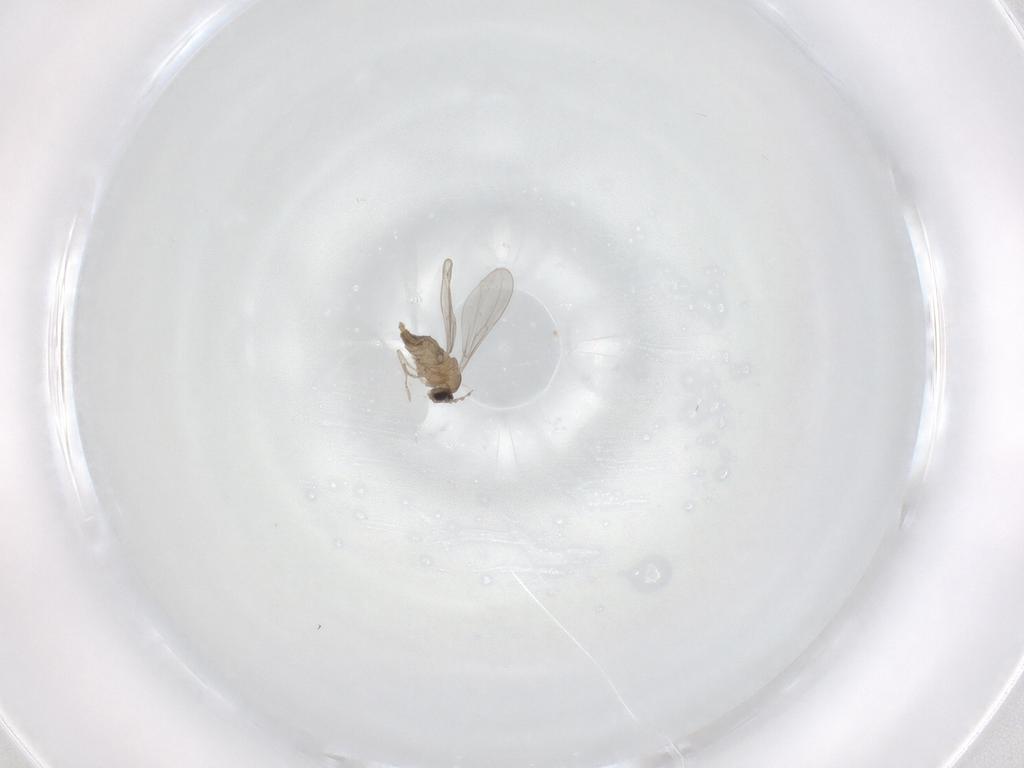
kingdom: Animalia
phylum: Arthropoda
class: Insecta
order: Diptera
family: Cecidomyiidae
